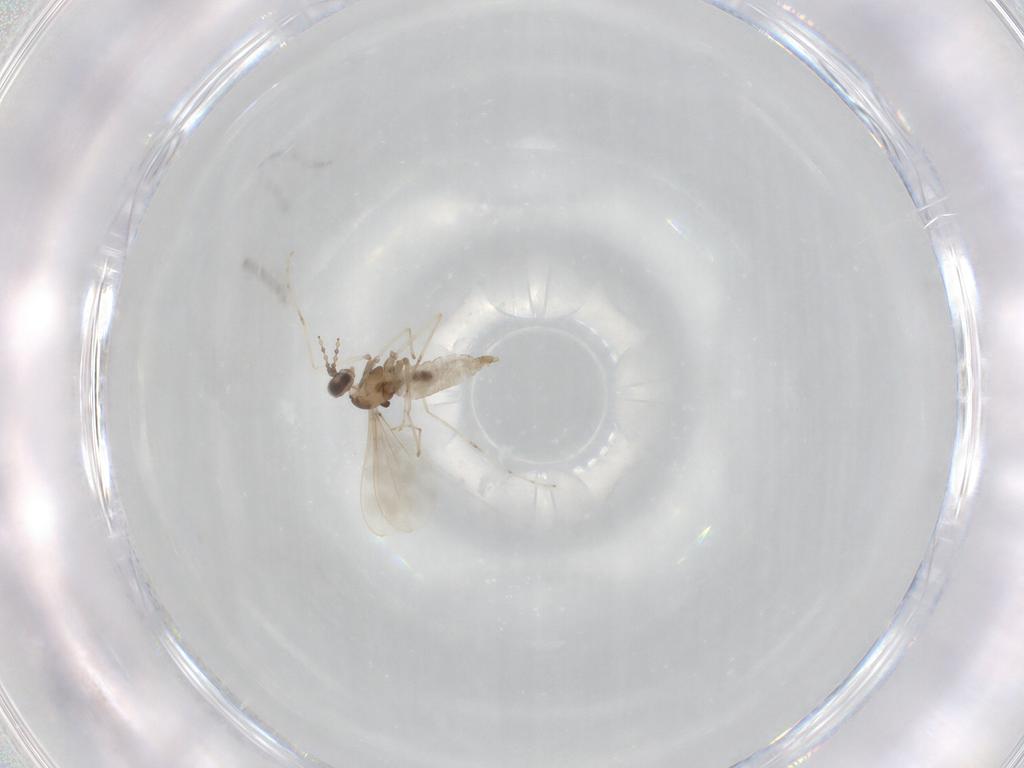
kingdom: Animalia
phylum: Arthropoda
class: Insecta
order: Diptera
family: Cecidomyiidae
